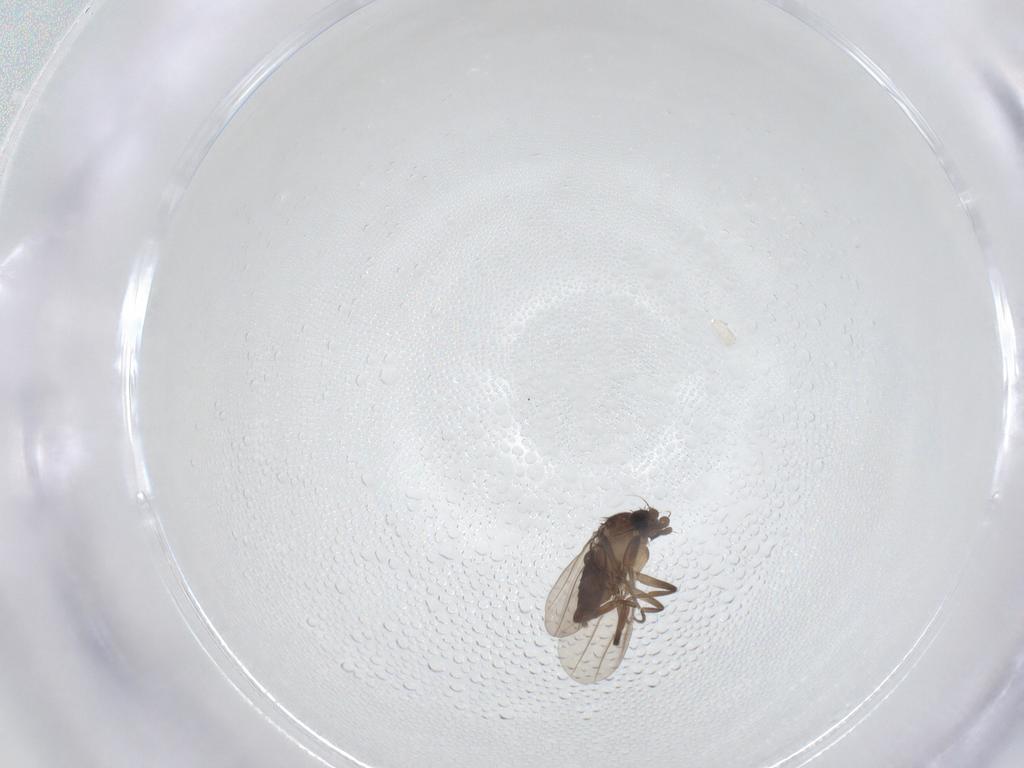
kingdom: Animalia
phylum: Arthropoda
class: Insecta
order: Diptera
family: Phoridae
